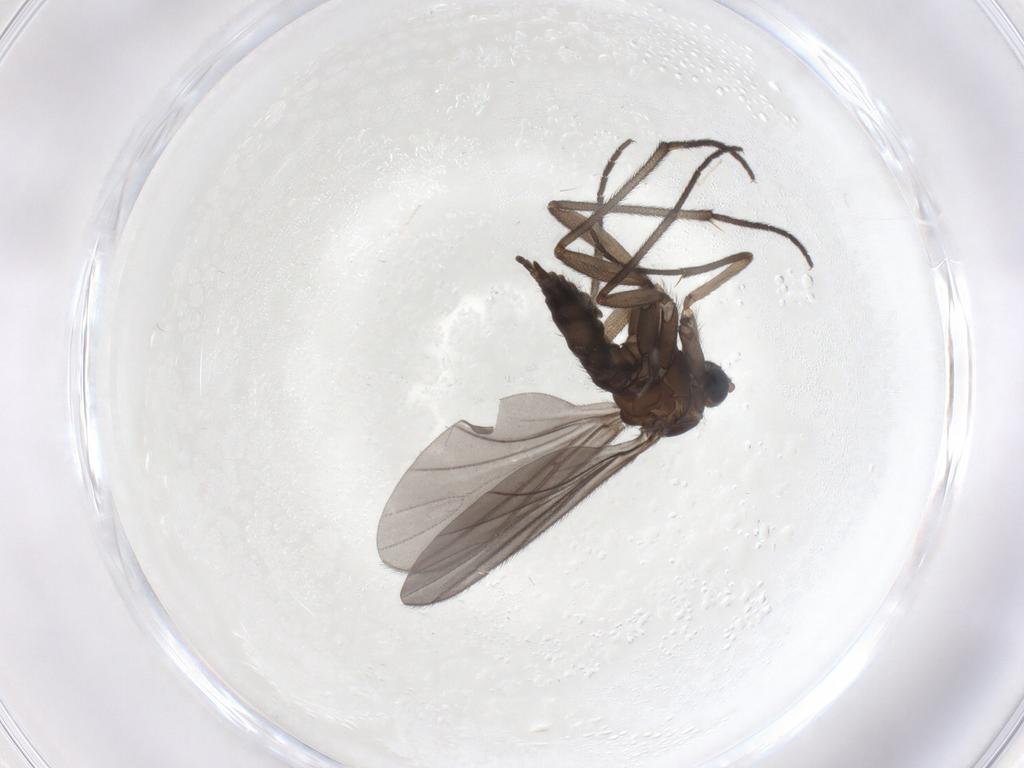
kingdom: Animalia
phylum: Arthropoda
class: Insecta
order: Diptera
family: Sciaridae
